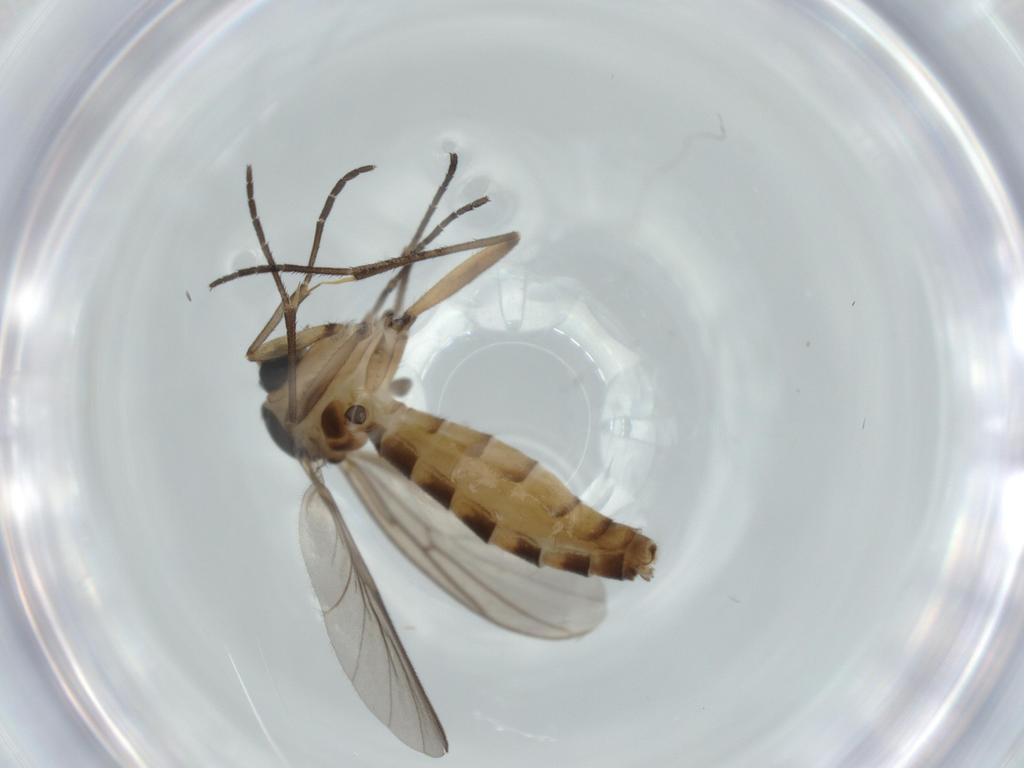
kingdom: Animalia
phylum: Arthropoda
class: Insecta
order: Diptera
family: Mycetophilidae
